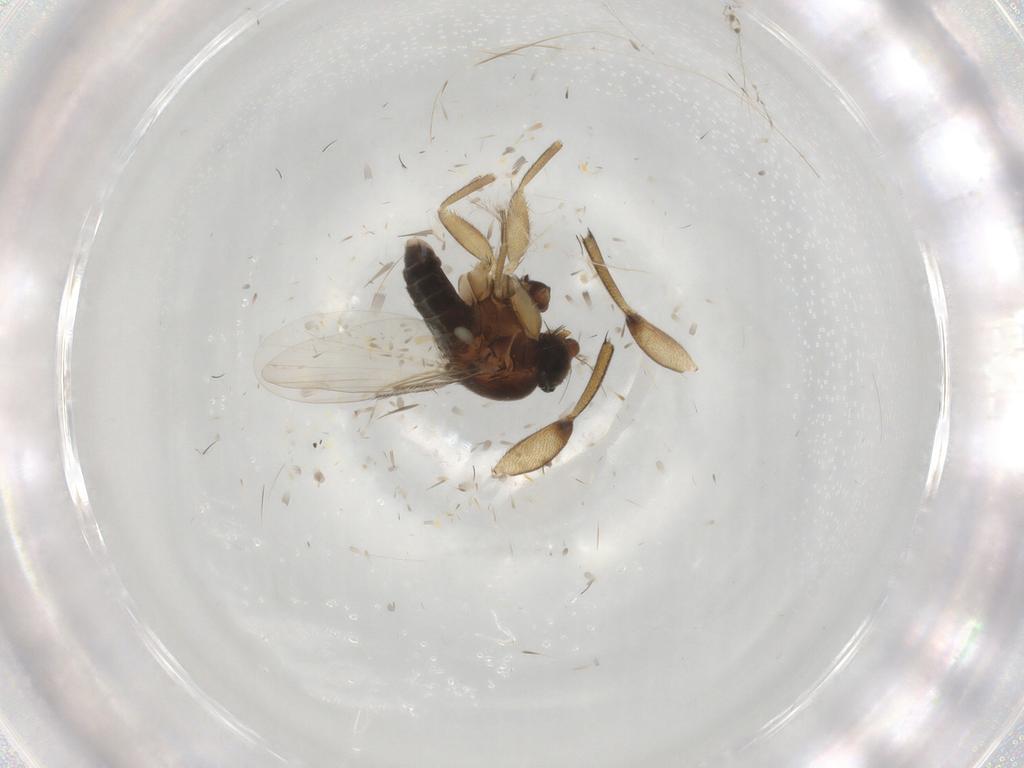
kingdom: Animalia
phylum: Arthropoda
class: Insecta
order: Diptera
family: Phoridae
